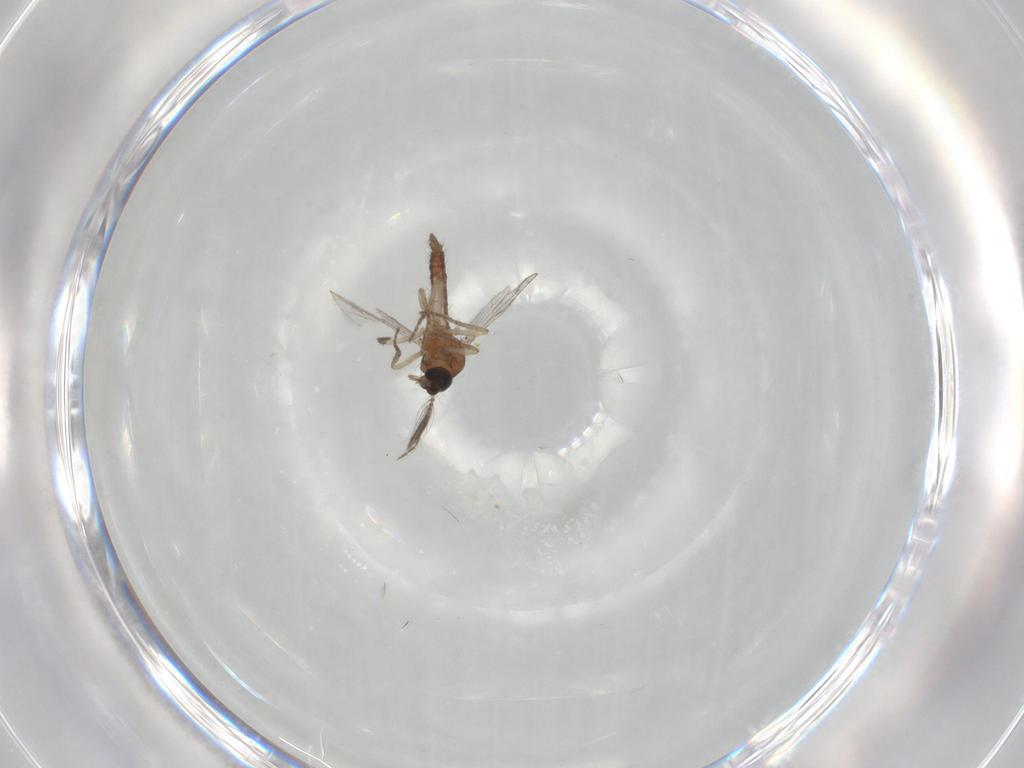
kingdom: Animalia
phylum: Arthropoda
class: Insecta
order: Diptera
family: Ceratopogonidae
